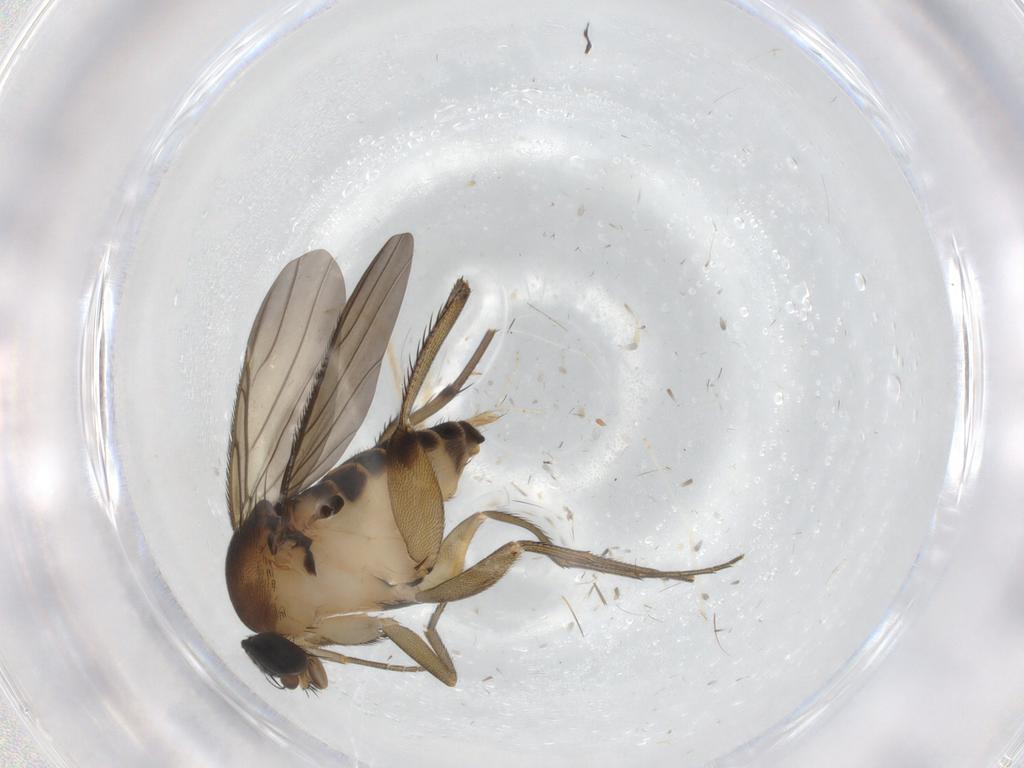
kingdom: Animalia
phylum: Arthropoda
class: Insecta
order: Diptera
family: Phoridae
